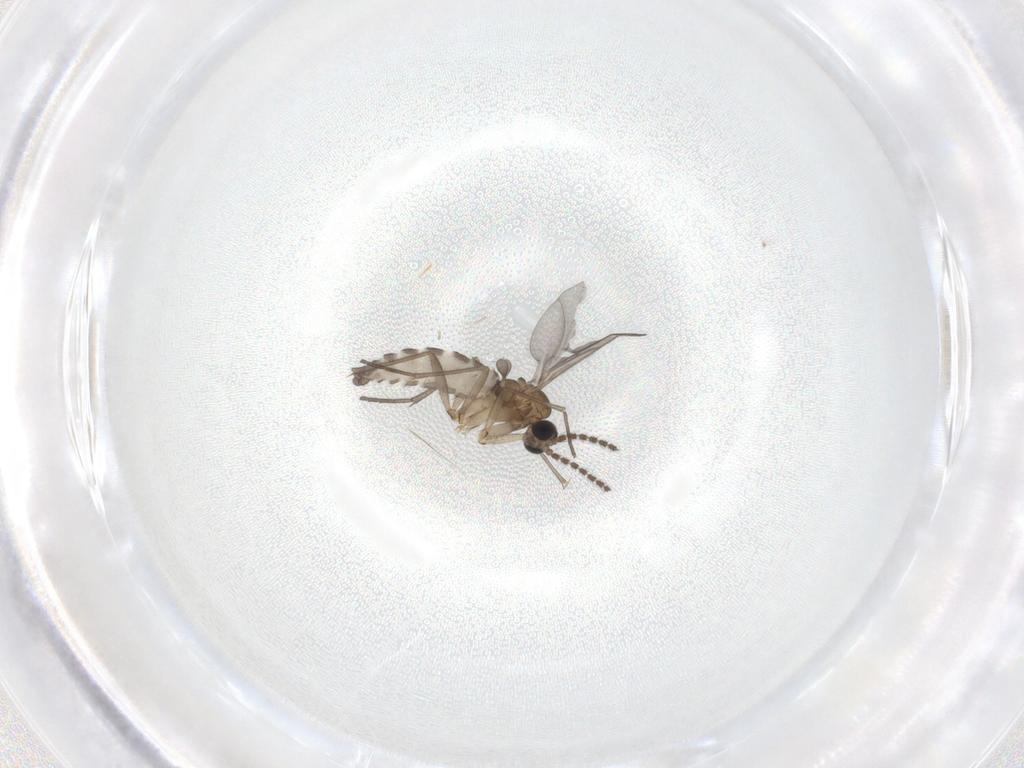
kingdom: Animalia
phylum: Arthropoda
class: Insecta
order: Diptera
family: Sciaridae
